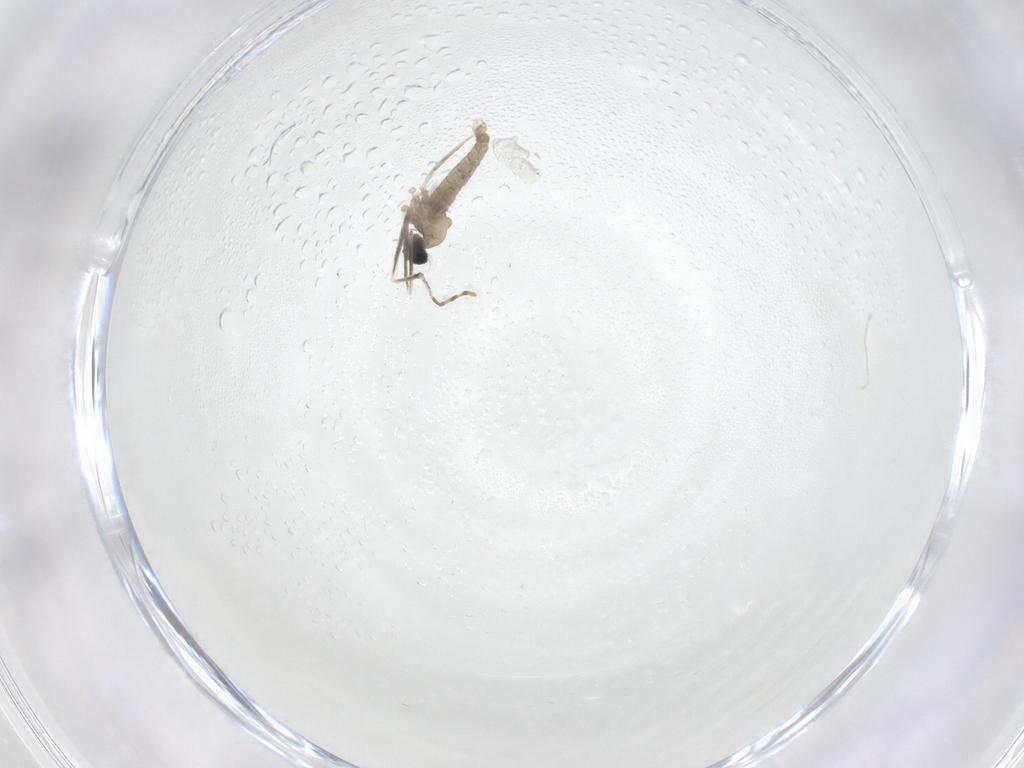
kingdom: Animalia
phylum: Arthropoda
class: Insecta
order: Diptera
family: Cecidomyiidae
